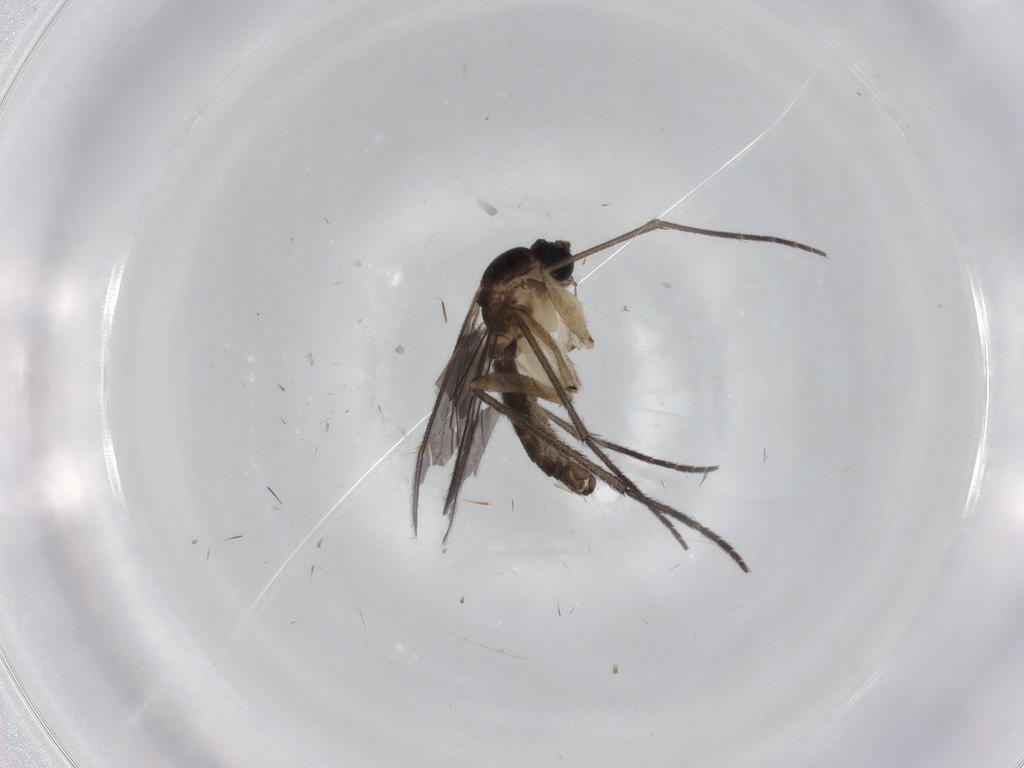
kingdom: Animalia
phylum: Arthropoda
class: Insecta
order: Diptera
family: Sciaridae
